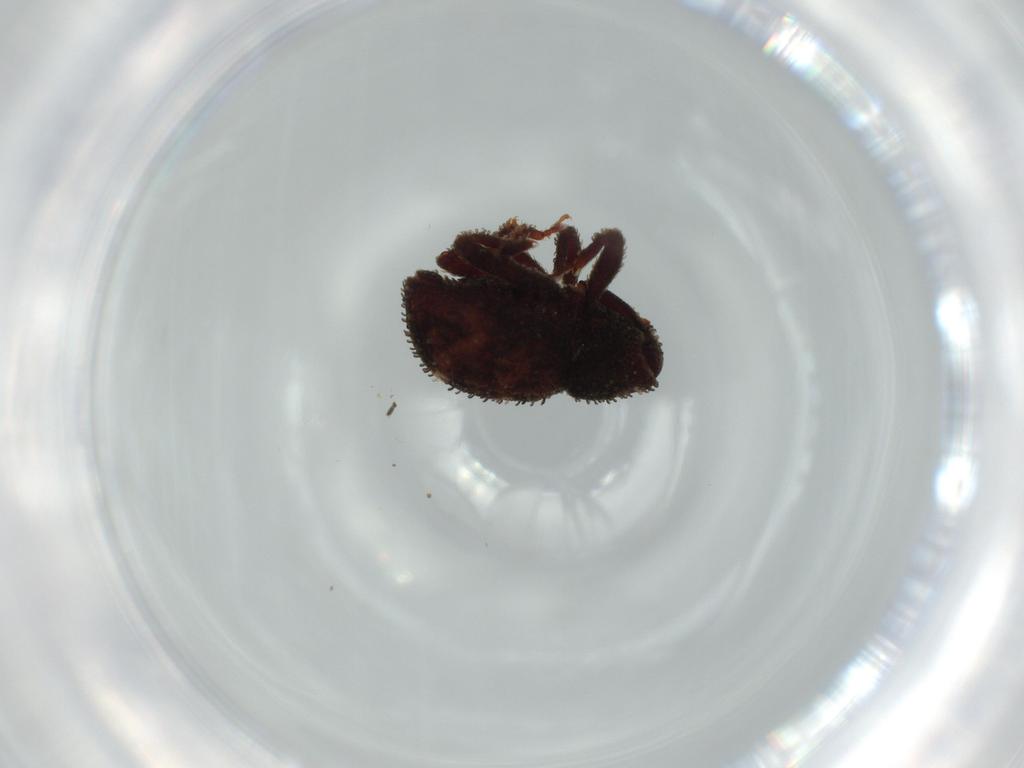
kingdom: Animalia
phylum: Arthropoda
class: Insecta
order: Coleoptera
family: Curculionidae
